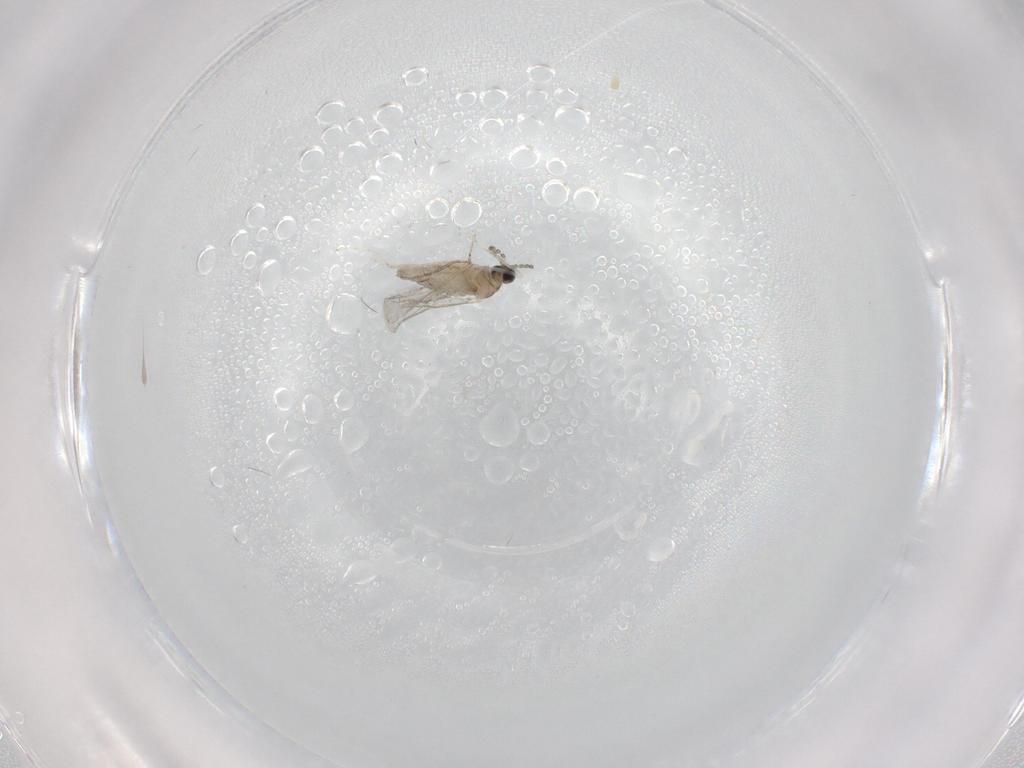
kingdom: Animalia
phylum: Arthropoda
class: Insecta
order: Diptera
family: Cecidomyiidae
